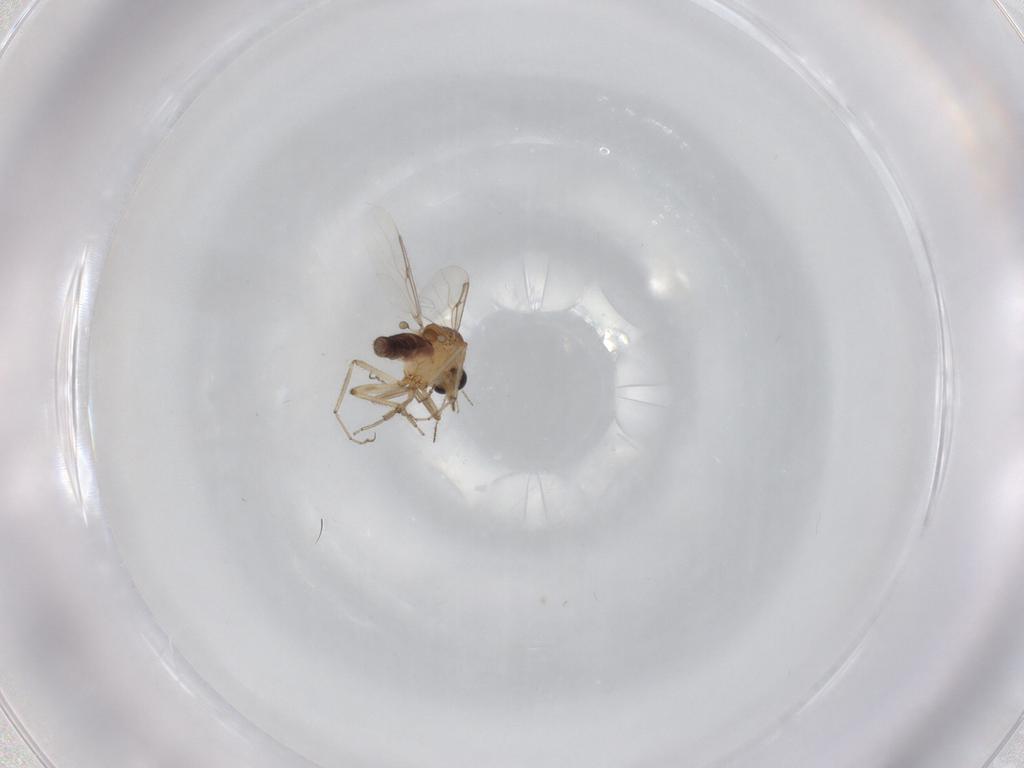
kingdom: Animalia
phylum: Arthropoda
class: Insecta
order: Diptera
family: Ceratopogonidae
